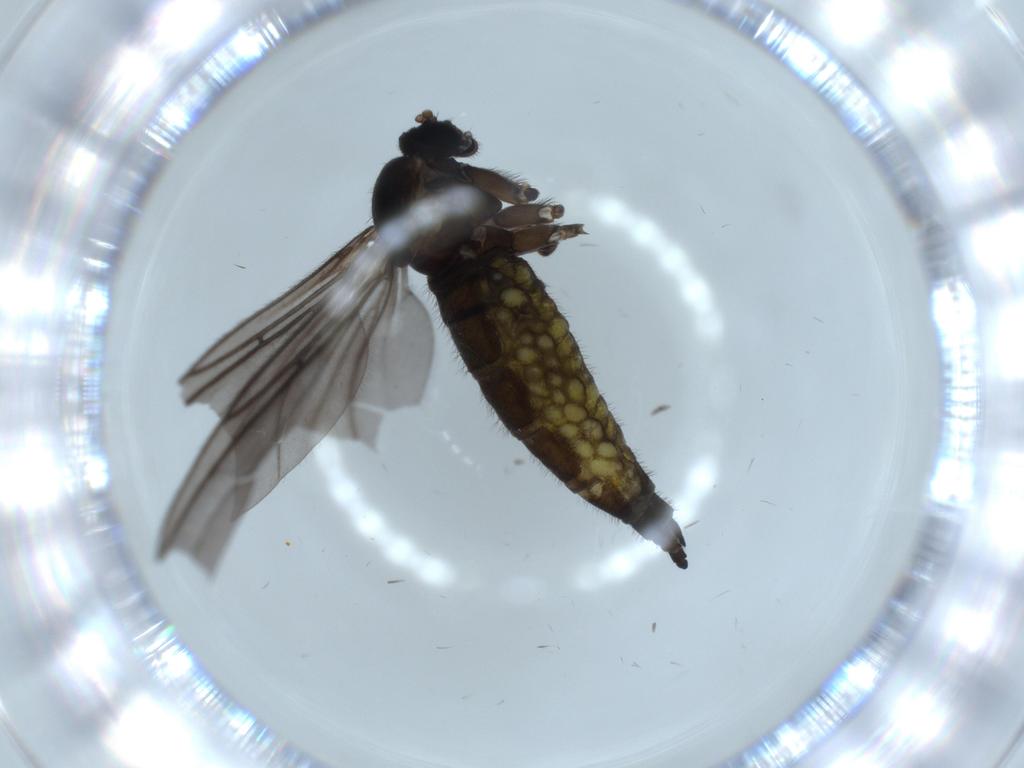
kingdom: Animalia
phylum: Arthropoda
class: Insecta
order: Diptera
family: Sciaridae
